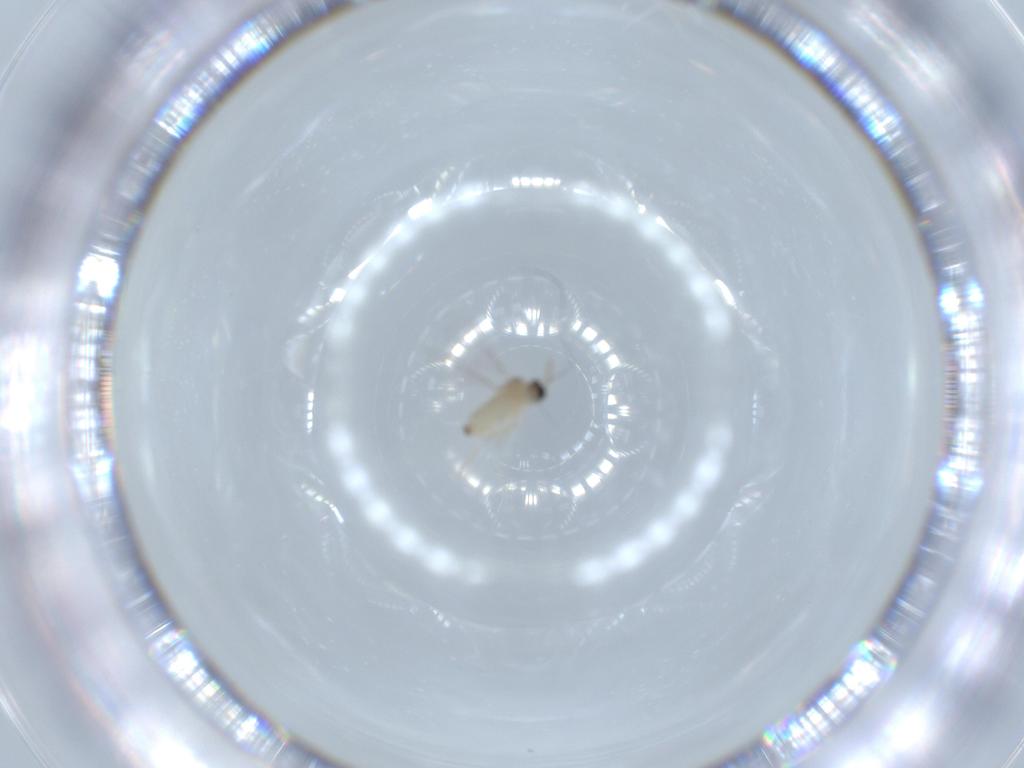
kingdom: Animalia
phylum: Arthropoda
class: Insecta
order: Diptera
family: Cecidomyiidae
